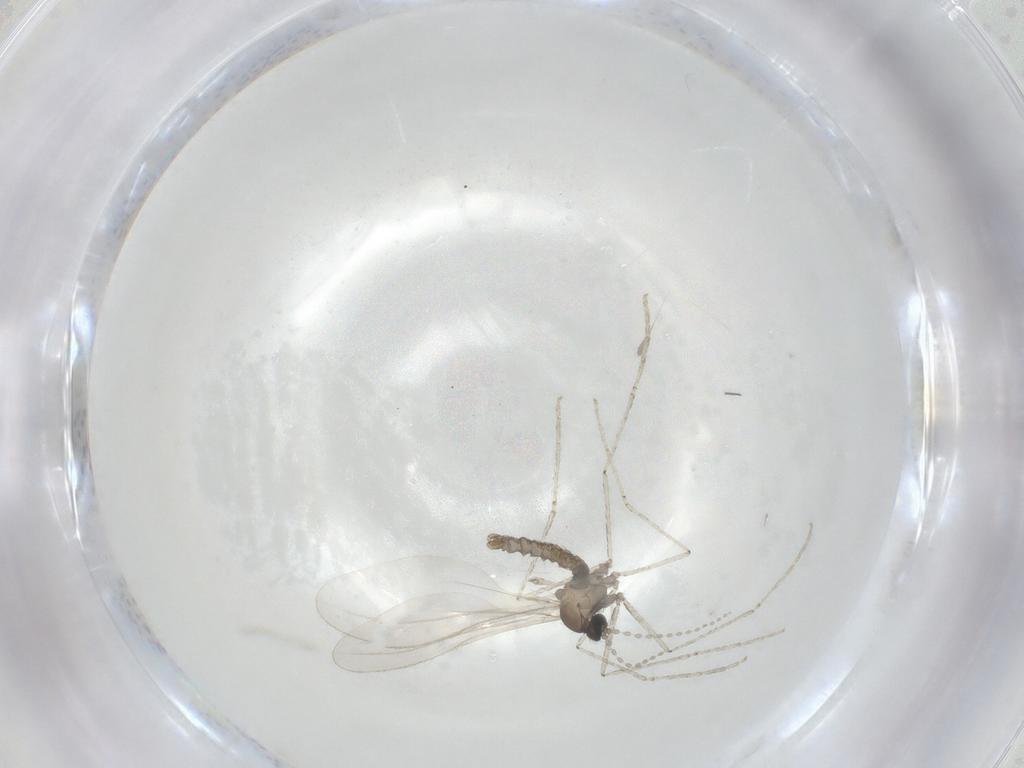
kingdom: Animalia
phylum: Arthropoda
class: Insecta
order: Diptera
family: Cecidomyiidae
